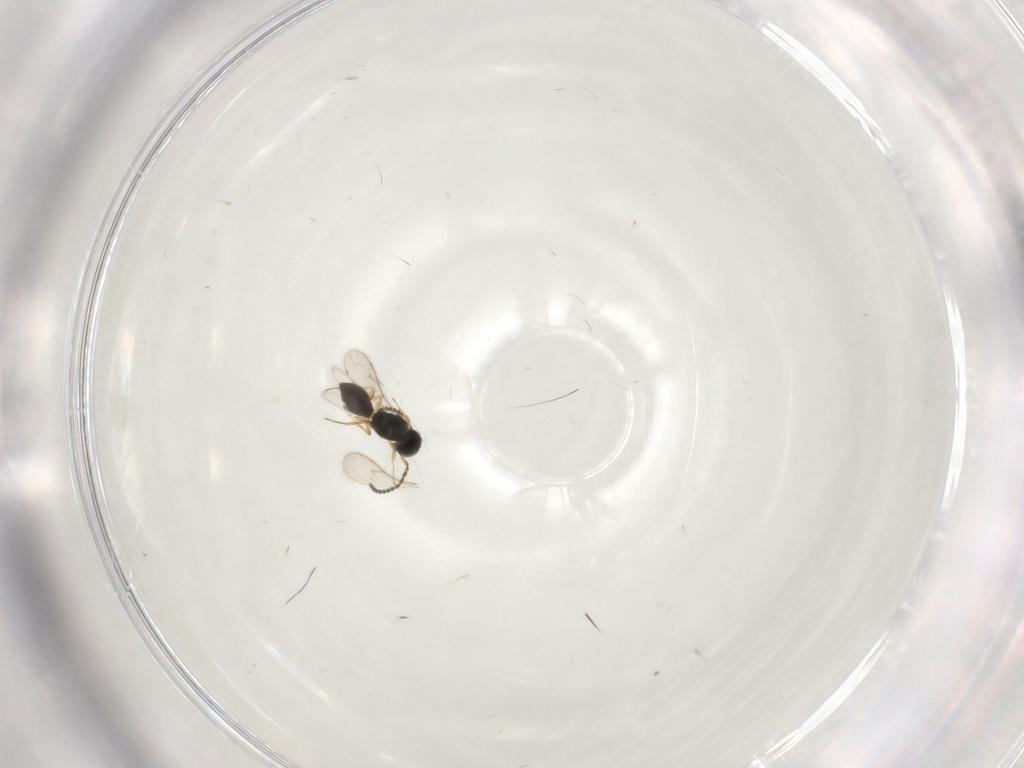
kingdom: Animalia
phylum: Arthropoda
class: Insecta
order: Hymenoptera
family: Scelionidae
